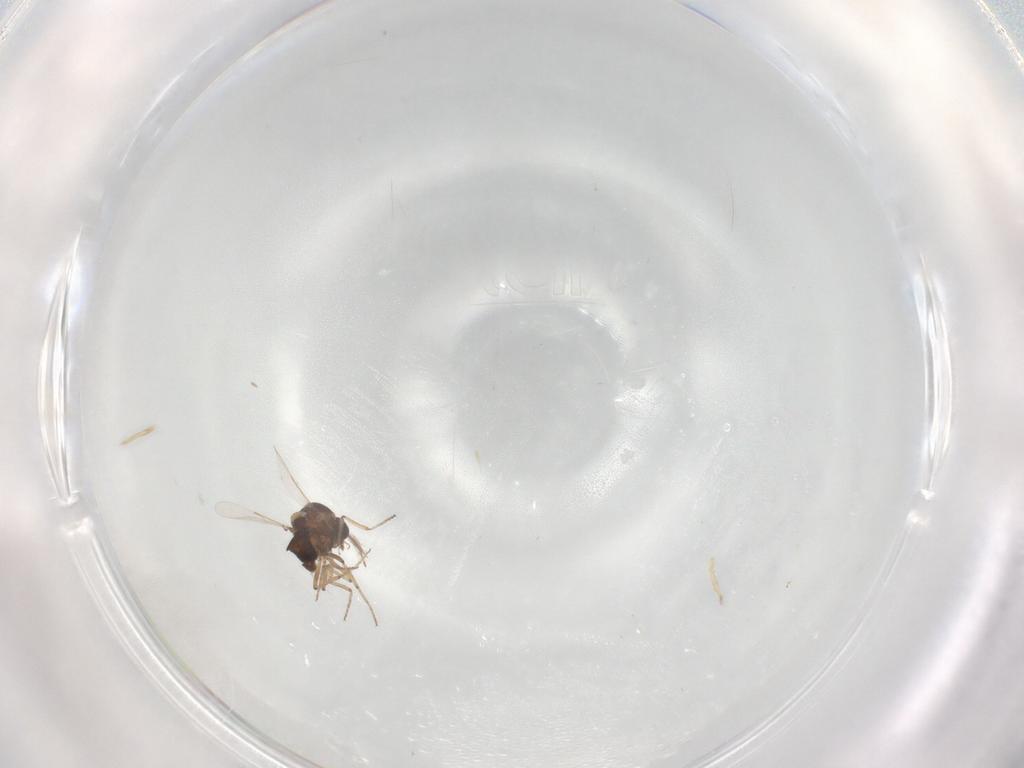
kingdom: Animalia
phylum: Arthropoda
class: Insecta
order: Diptera
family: Ceratopogonidae
